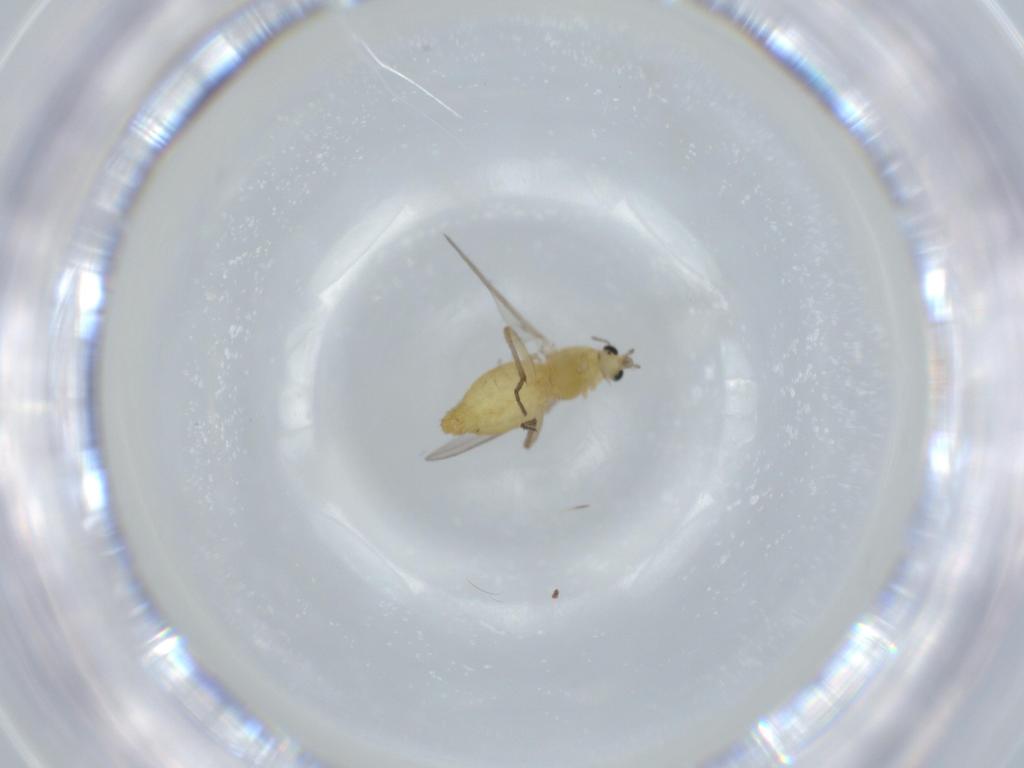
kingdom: Animalia
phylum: Arthropoda
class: Insecta
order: Diptera
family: Chironomidae
